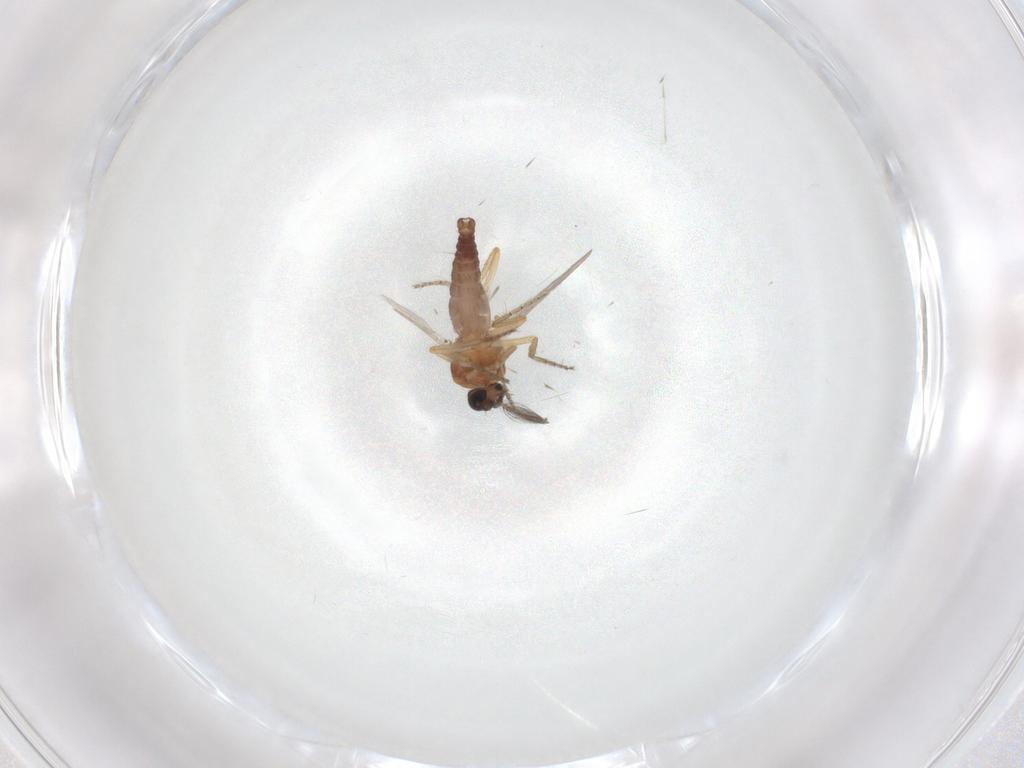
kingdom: Animalia
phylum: Arthropoda
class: Insecta
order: Diptera
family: Ceratopogonidae
